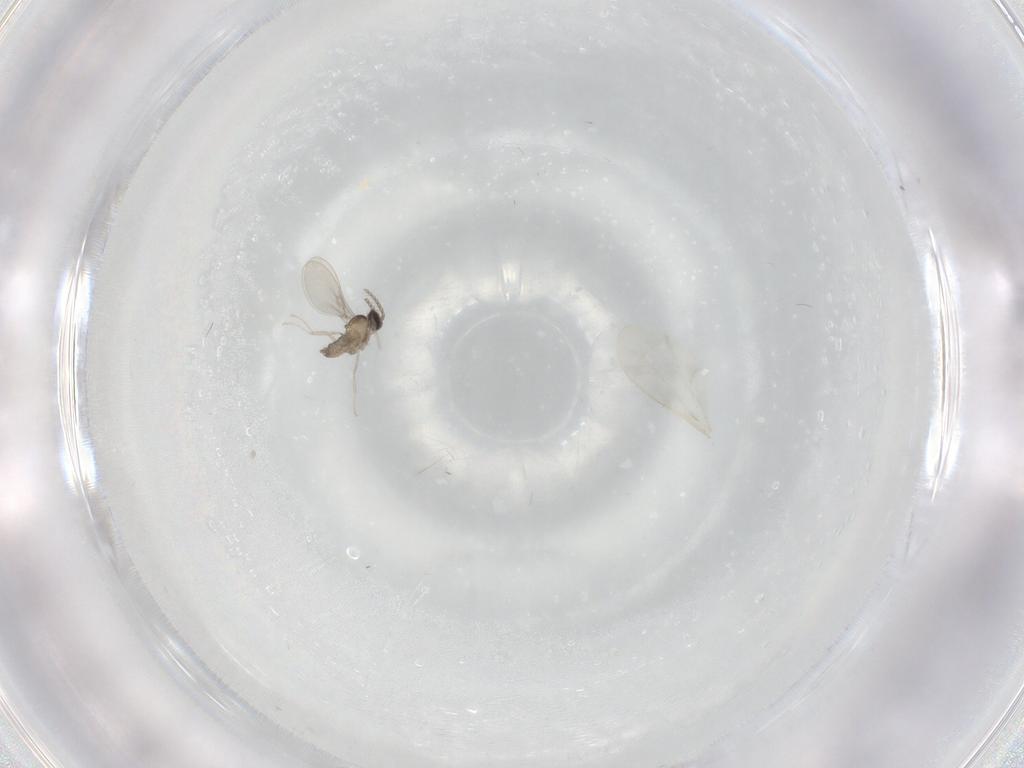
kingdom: Animalia
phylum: Arthropoda
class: Insecta
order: Diptera
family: Cecidomyiidae
